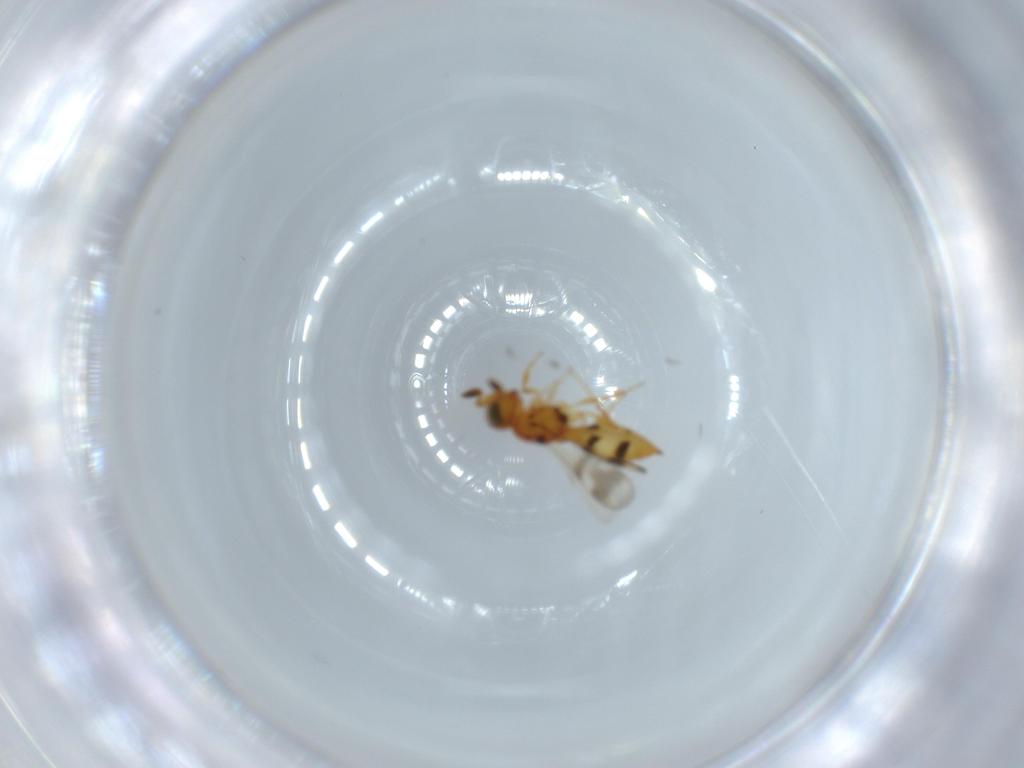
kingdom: Animalia
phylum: Arthropoda
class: Insecta
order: Hymenoptera
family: Scelionidae
